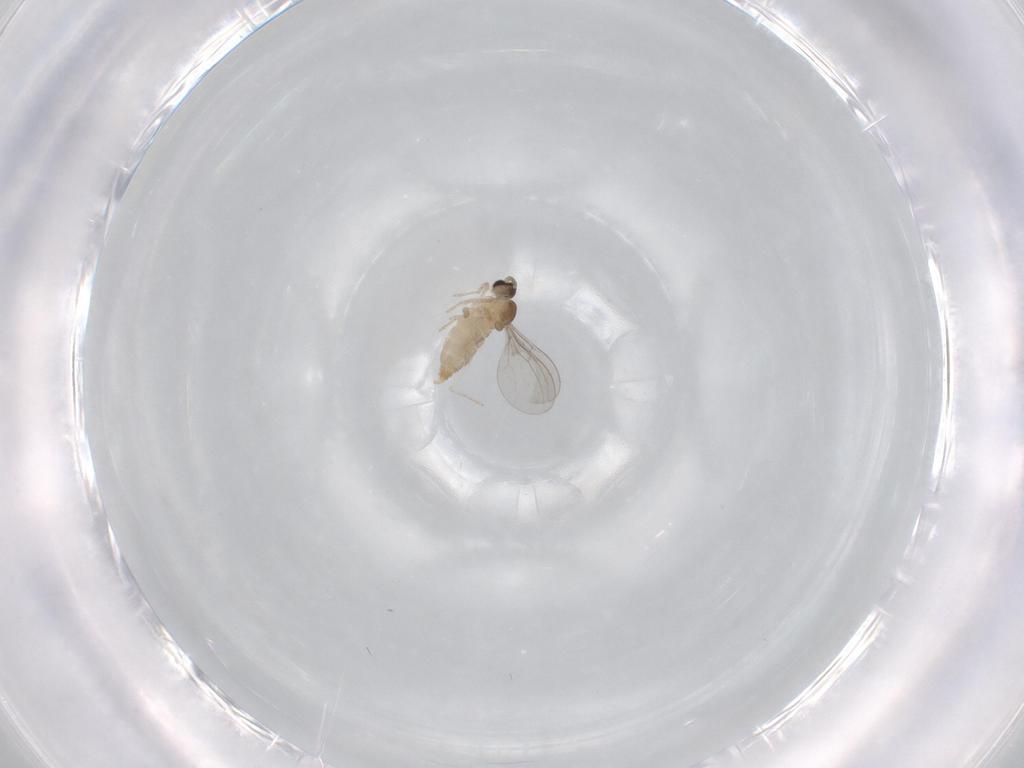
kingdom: Animalia
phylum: Arthropoda
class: Insecta
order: Diptera
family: Cecidomyiidae
